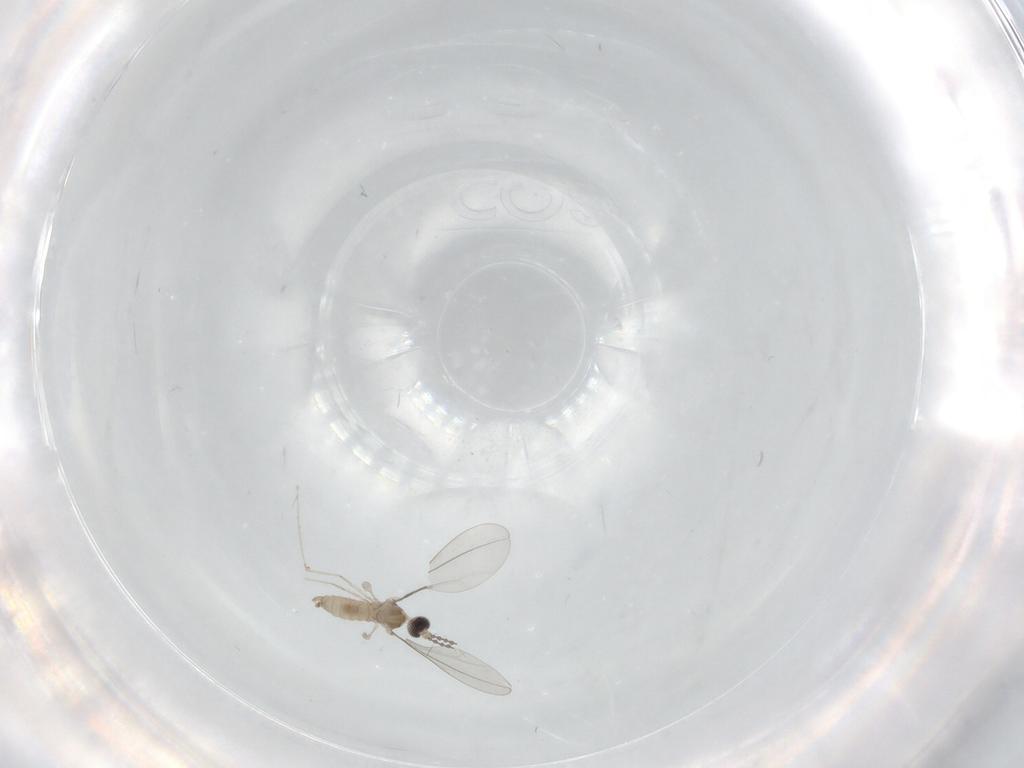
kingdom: Animalia
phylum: Arthropoda
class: Insecta
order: Diptera
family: Cecidomyiidae
